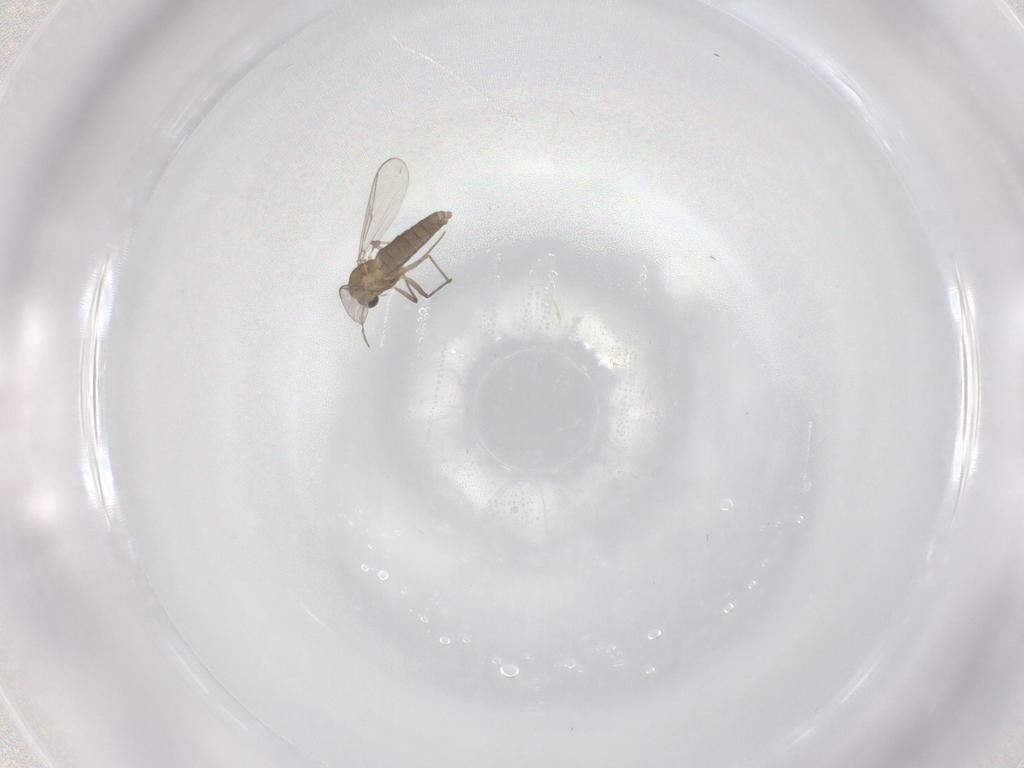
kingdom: Animalia
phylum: Arthropoda
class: Insecta
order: Diptera
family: Chironomidae
